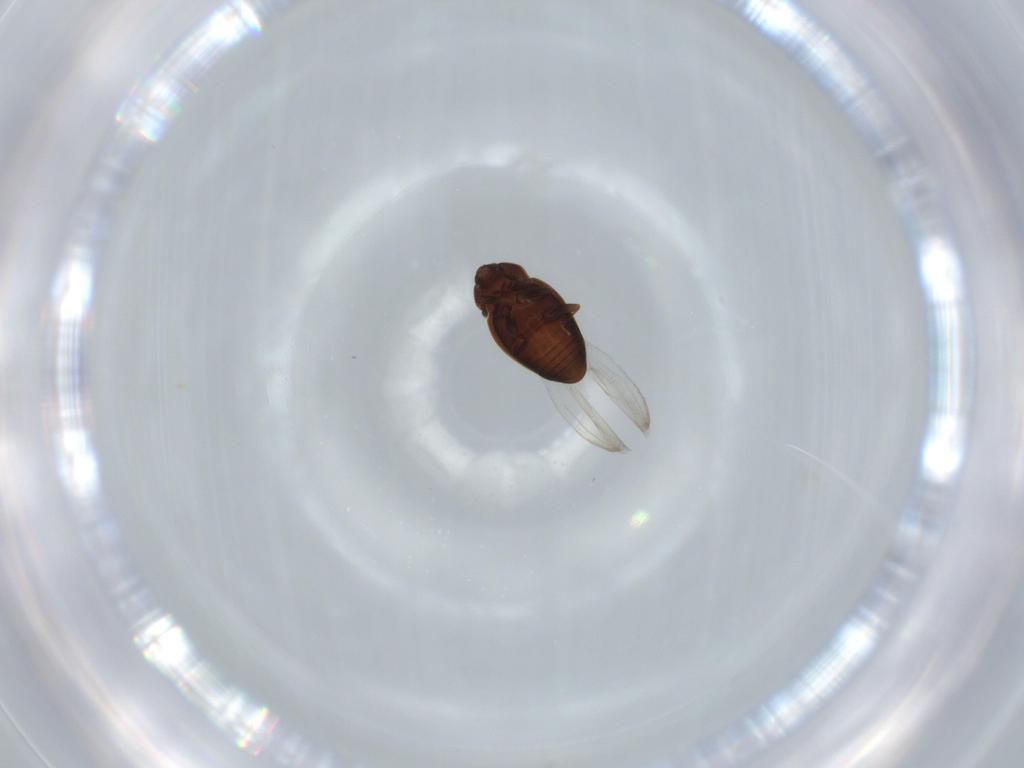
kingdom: Animalia
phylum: Arthropoda
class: Insecta
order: Coleoptera
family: Corylophidae
